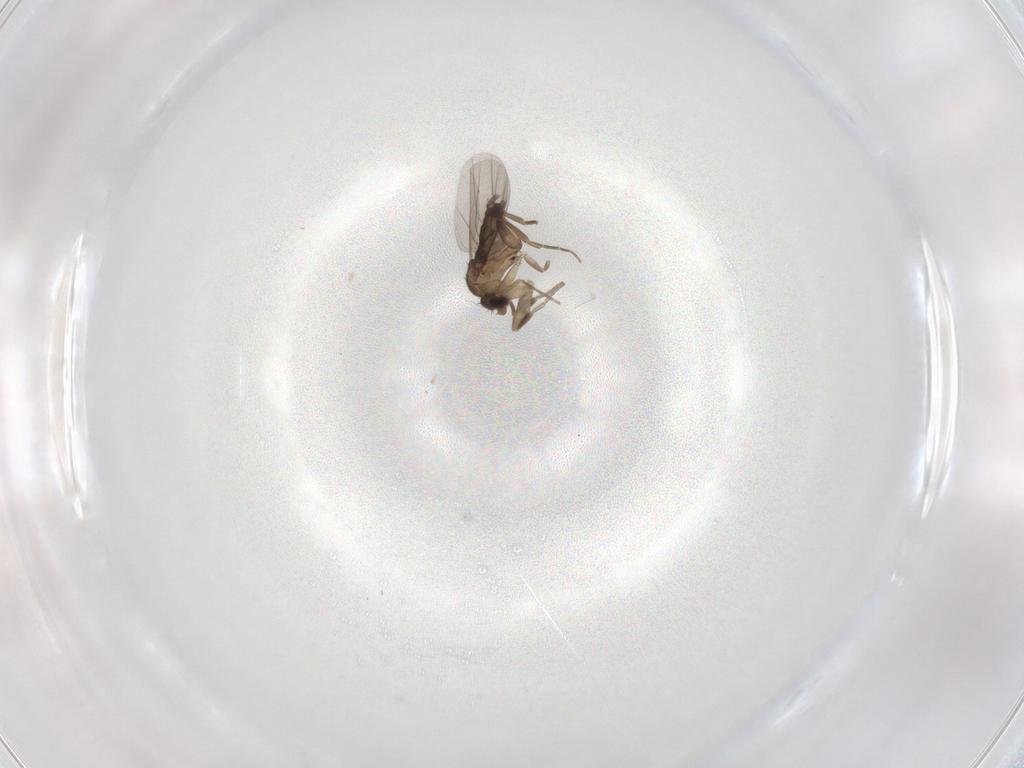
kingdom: Animalia
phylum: Arthropoda
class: Insecta
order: Diptera
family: Phoridae
